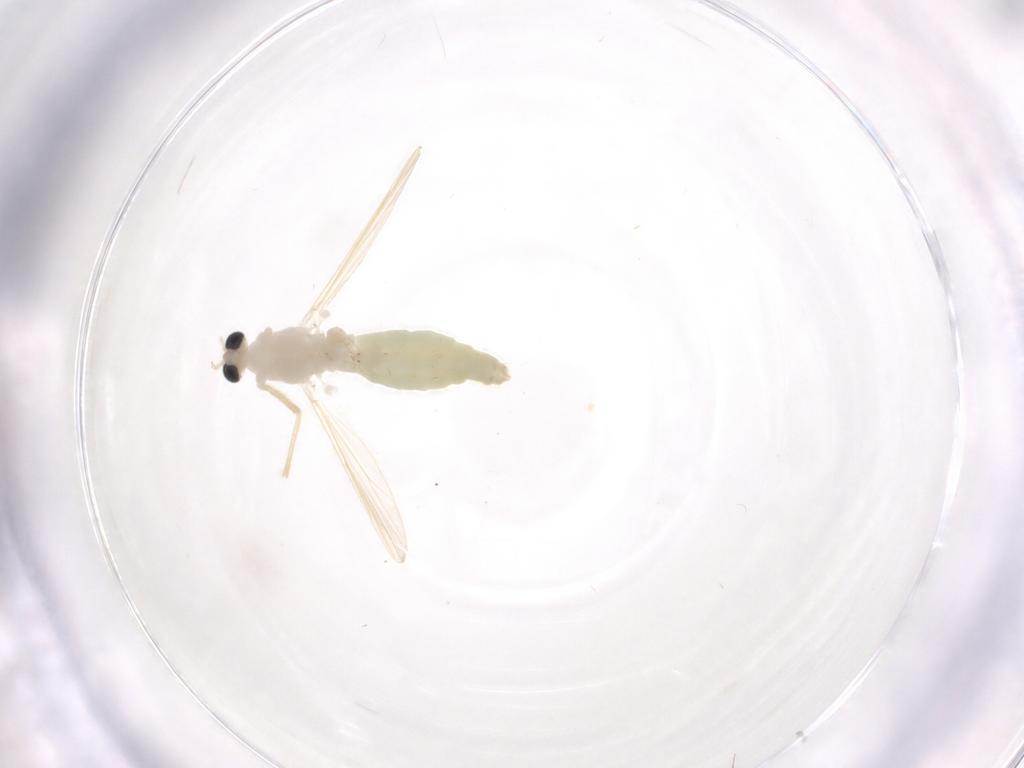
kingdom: Animalia
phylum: Arthropoda
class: Insecta
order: Diptera
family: Chironomidae
